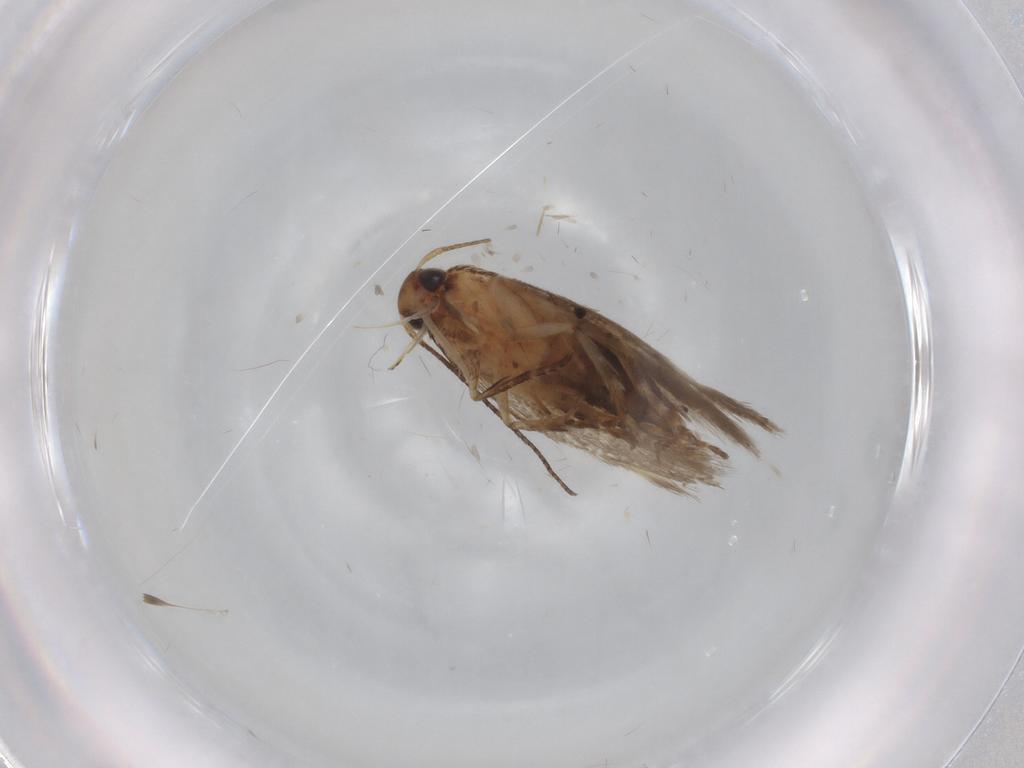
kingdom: Animalia
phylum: Arthropoda
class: Insecta
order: Lepidoptera
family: Gelechiidae
